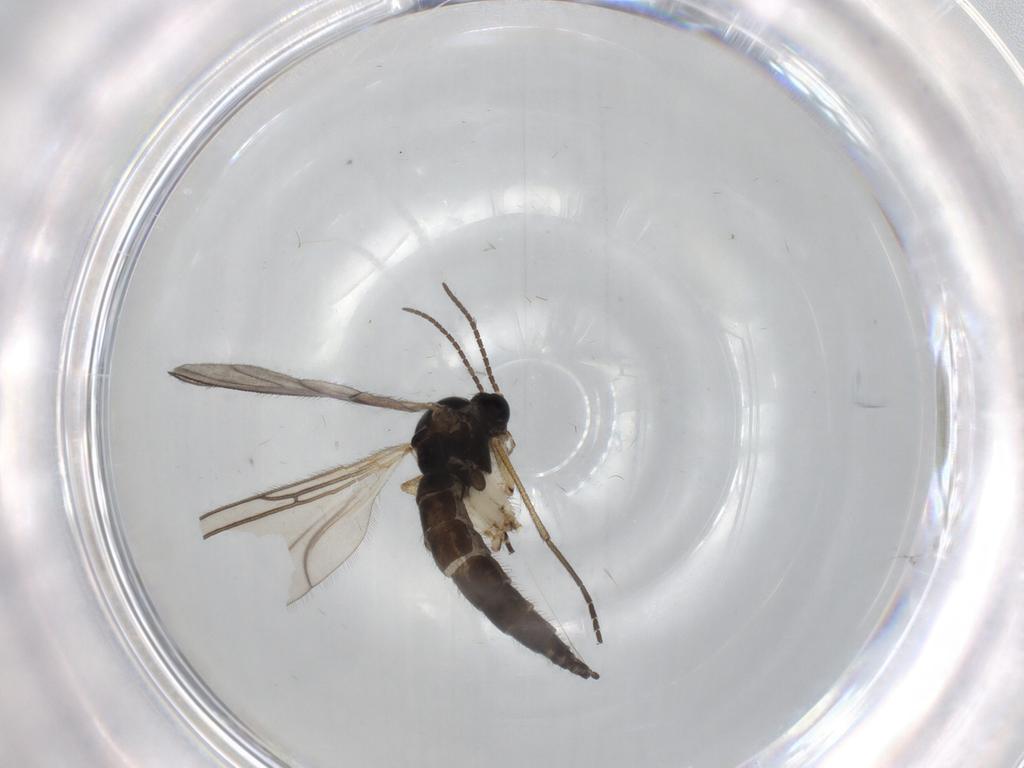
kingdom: Animalia
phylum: Arthropoda
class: Insecta
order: Diptera
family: Sciaridae
